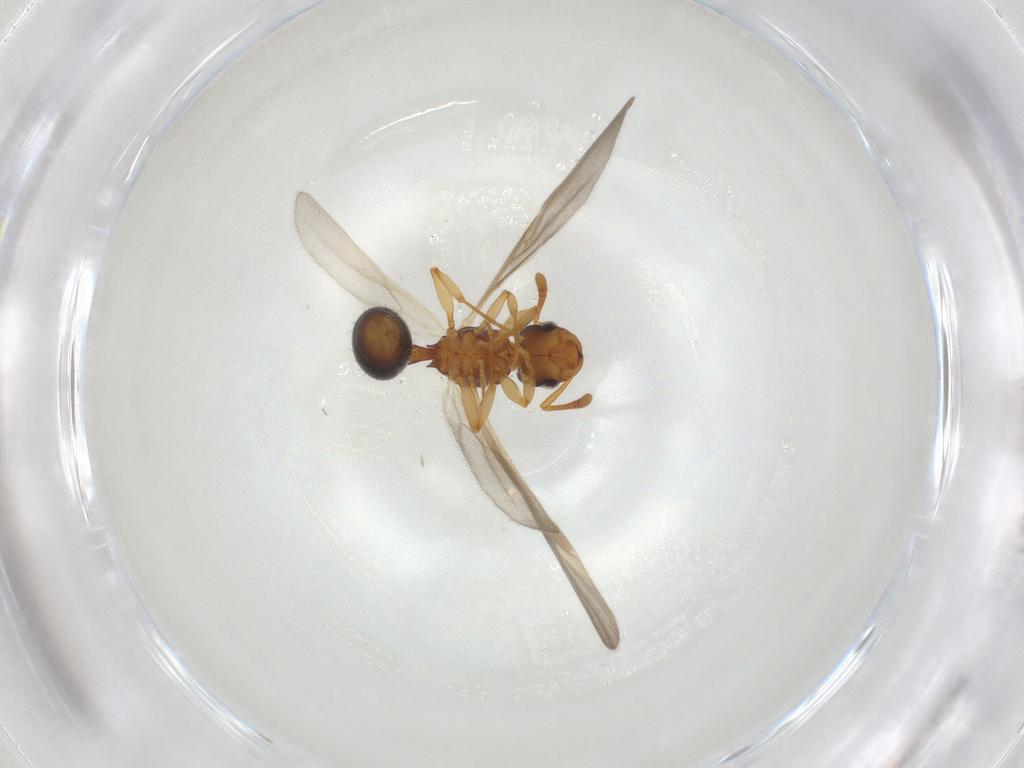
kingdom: Animalia
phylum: Arthropoda
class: Insecta
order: Hymenoptera
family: Formicidae
